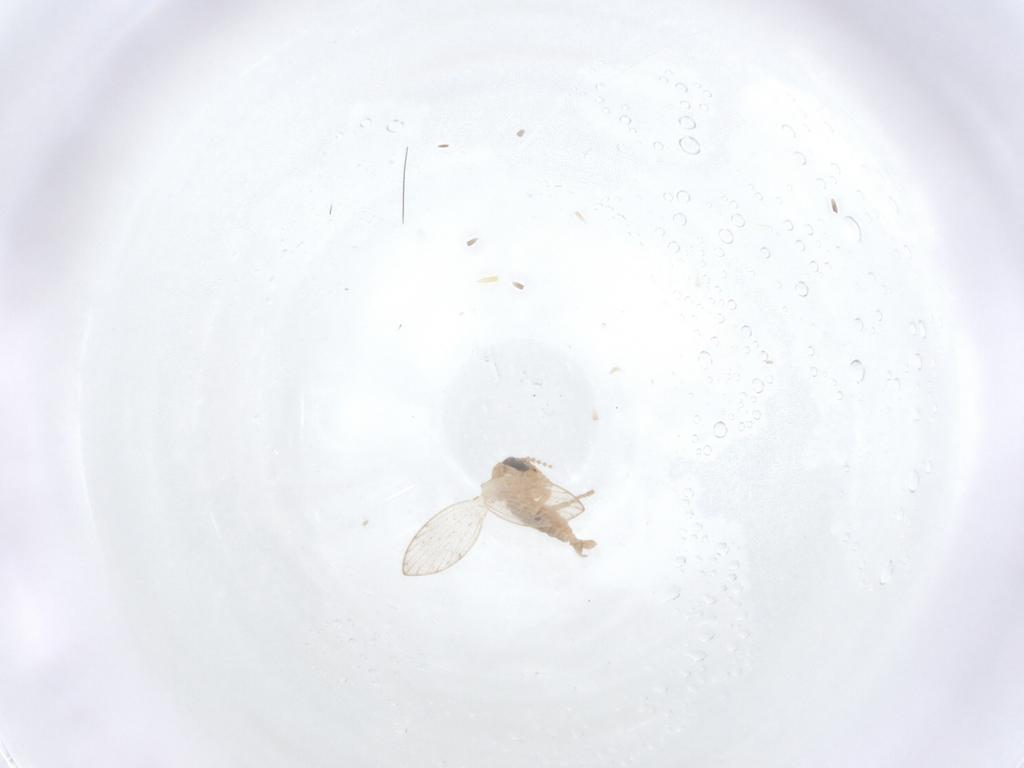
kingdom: Animalia
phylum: Arthropoda
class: Insecta
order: Diptera
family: Psychodidae
